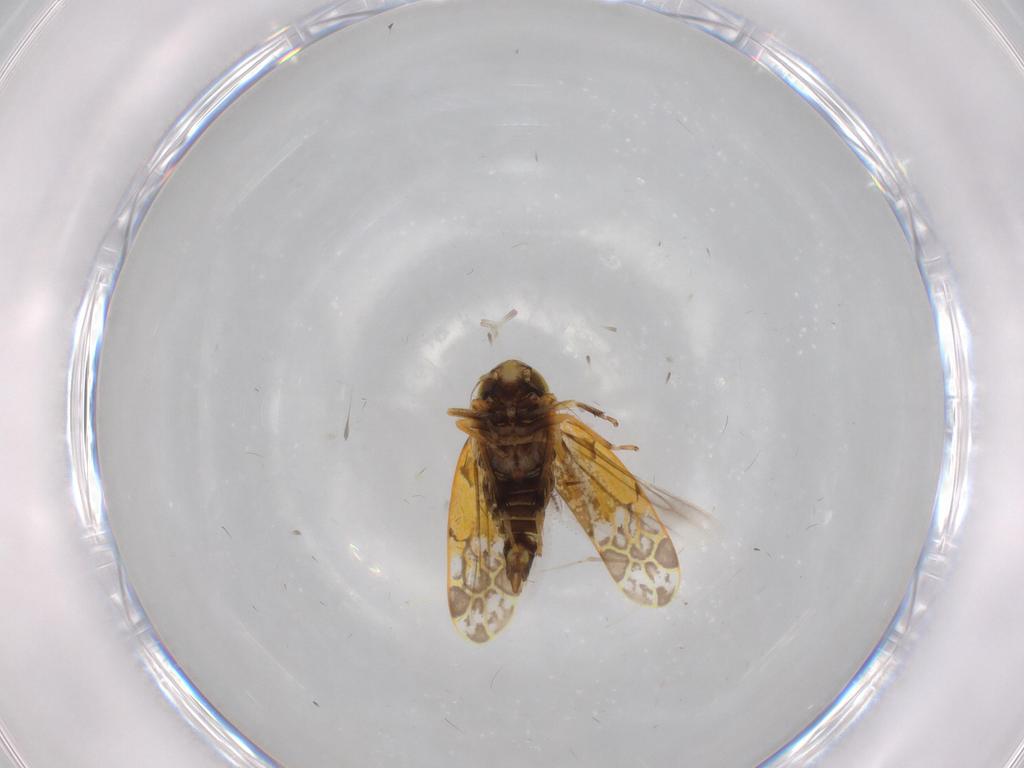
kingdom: Animalia
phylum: Arthropoda
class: Insecta
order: Hemiptera
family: Cicadellidae
